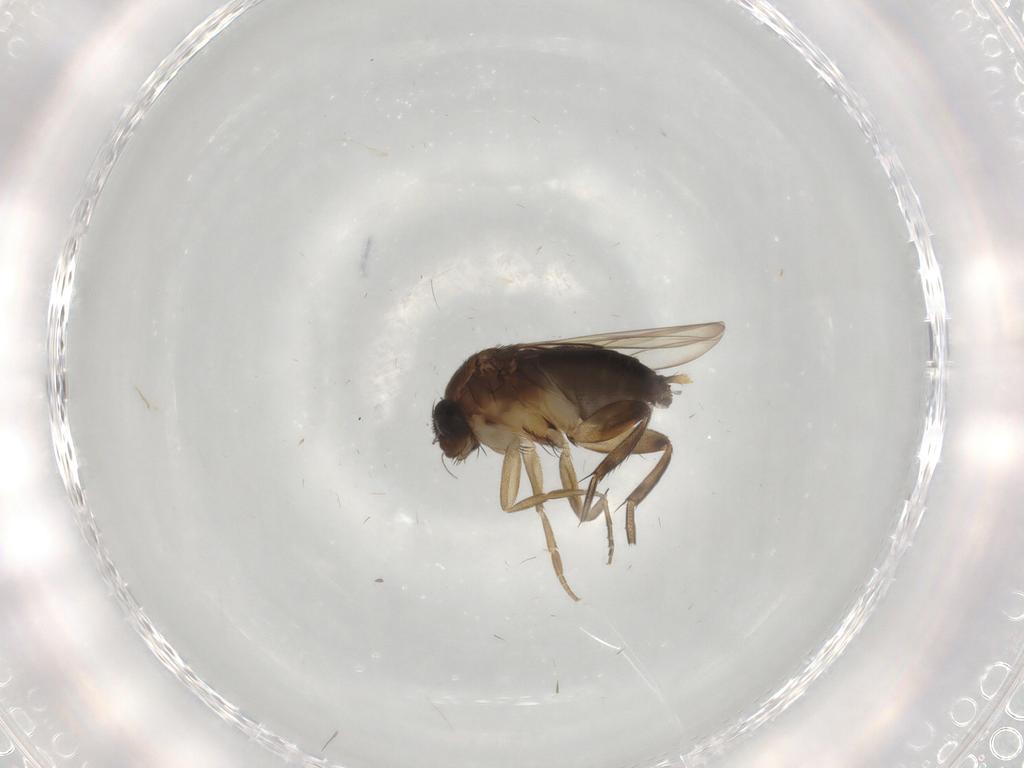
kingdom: Animalia
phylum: Arthropoda
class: Insecta
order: Diptera
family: Phoridae
